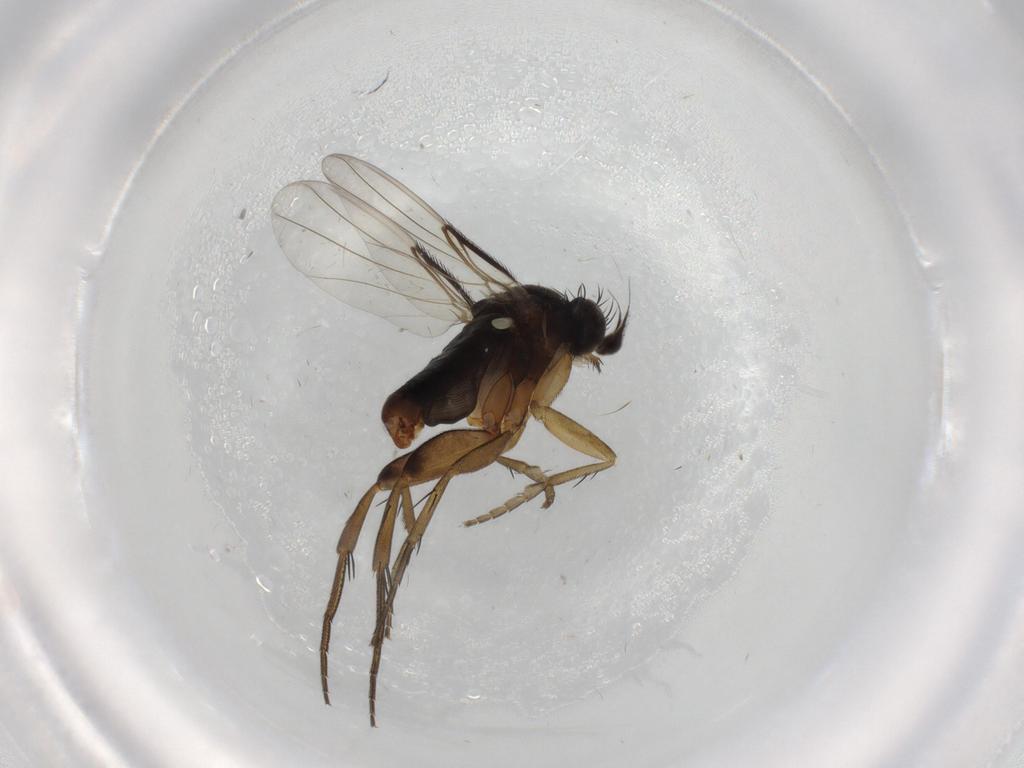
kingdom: Animalia
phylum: Arthropoda
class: Insecta
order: Diptera
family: Phoridae
